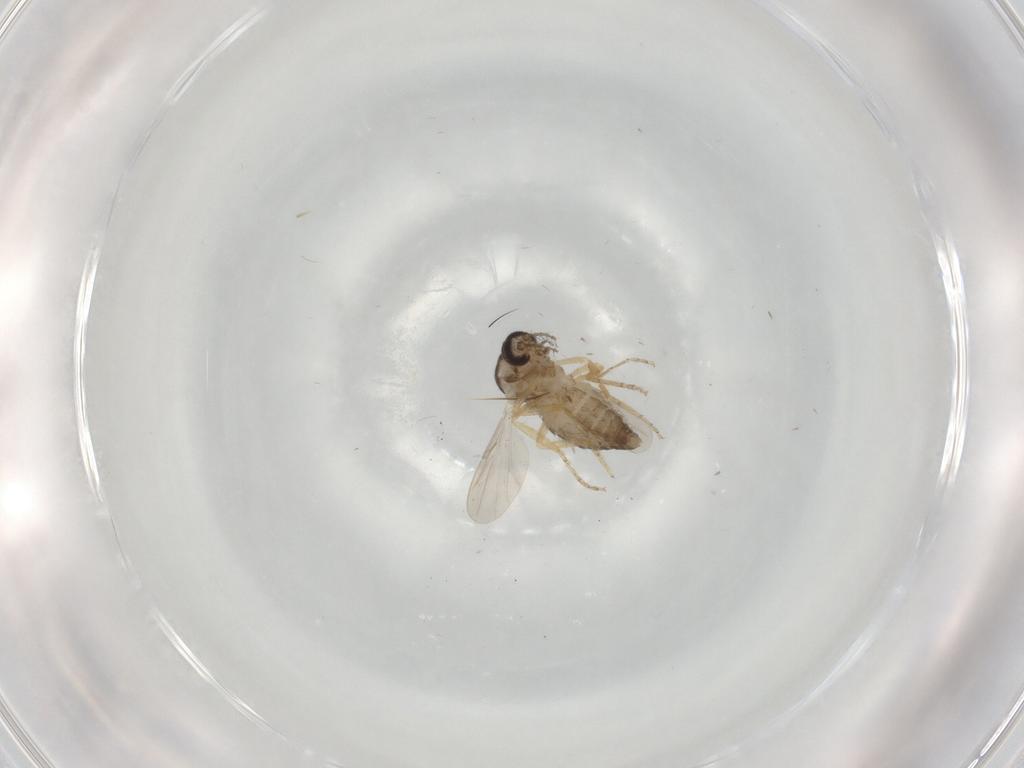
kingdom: Animalia
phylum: Arthropoda
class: Insecta
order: Diptera
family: Ceratopogonidae
